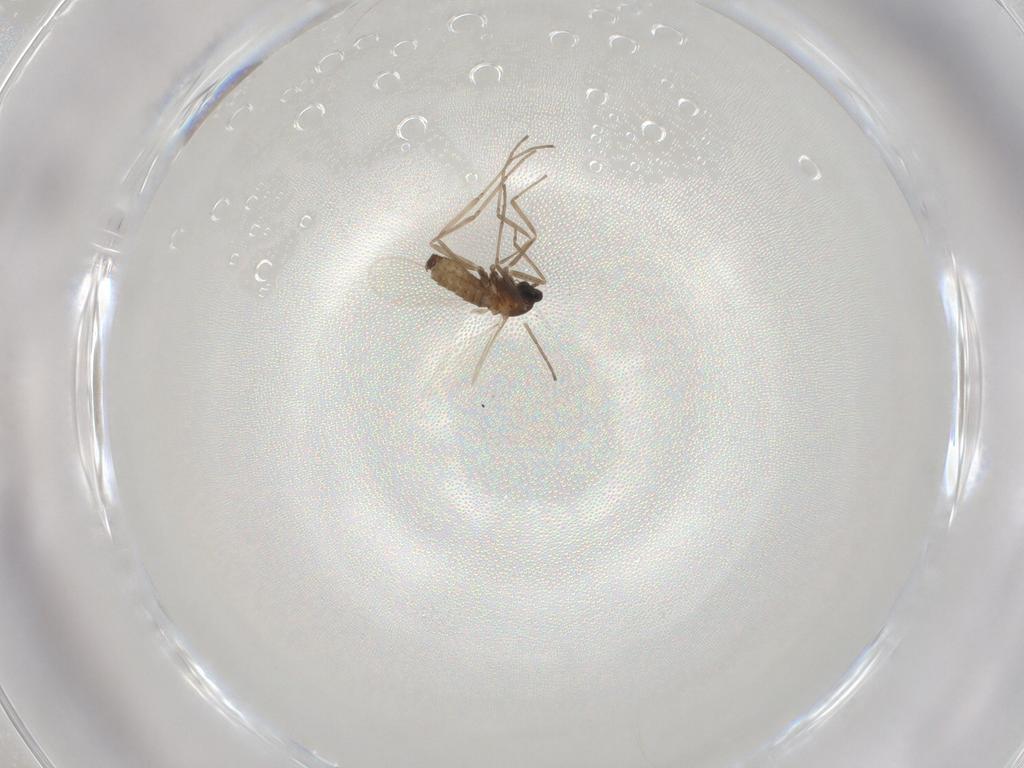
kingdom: Animalia
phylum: Arthropoda
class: Insecta
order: Diptera
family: Cecidomyiidae
